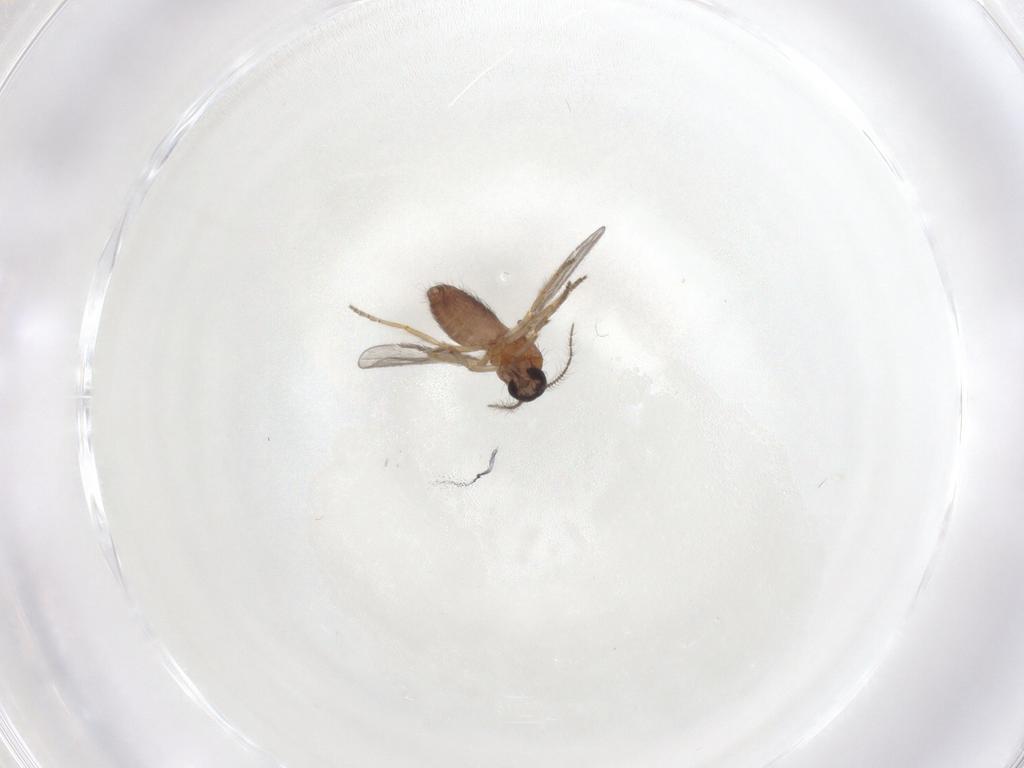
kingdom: Animalia
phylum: Arthropoda
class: Insecta
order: Diptera
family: Ceratopogonidae
